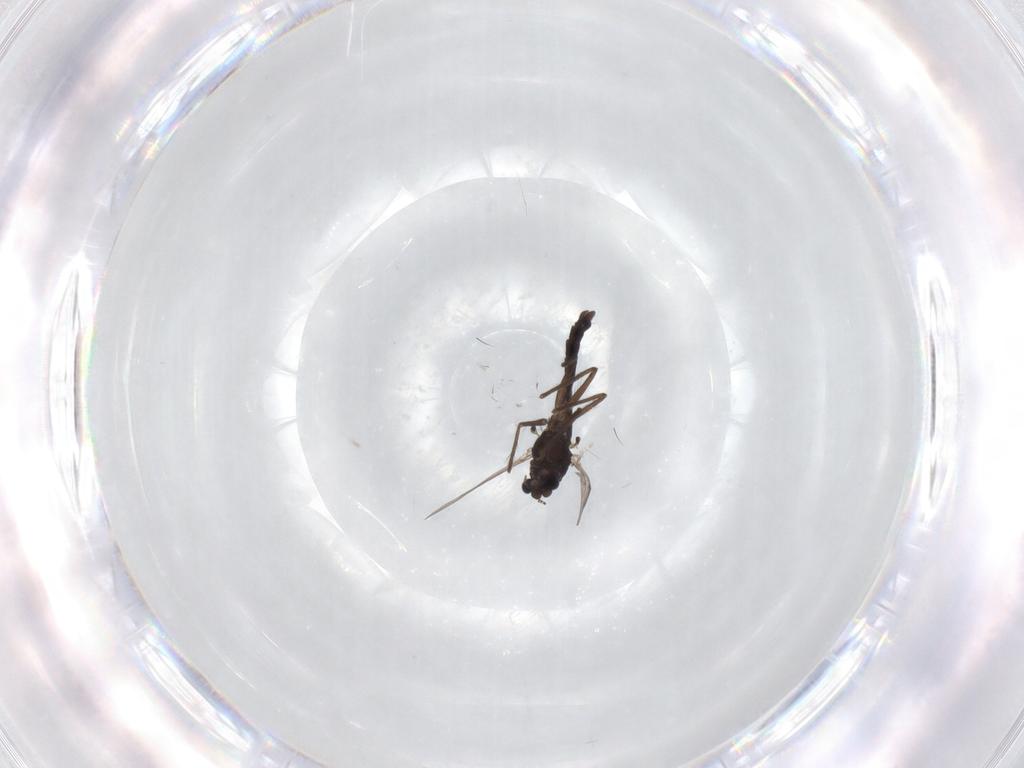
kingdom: Animalia
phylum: Arthropoda
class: Insecta
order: Diptera
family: Chironomidae
